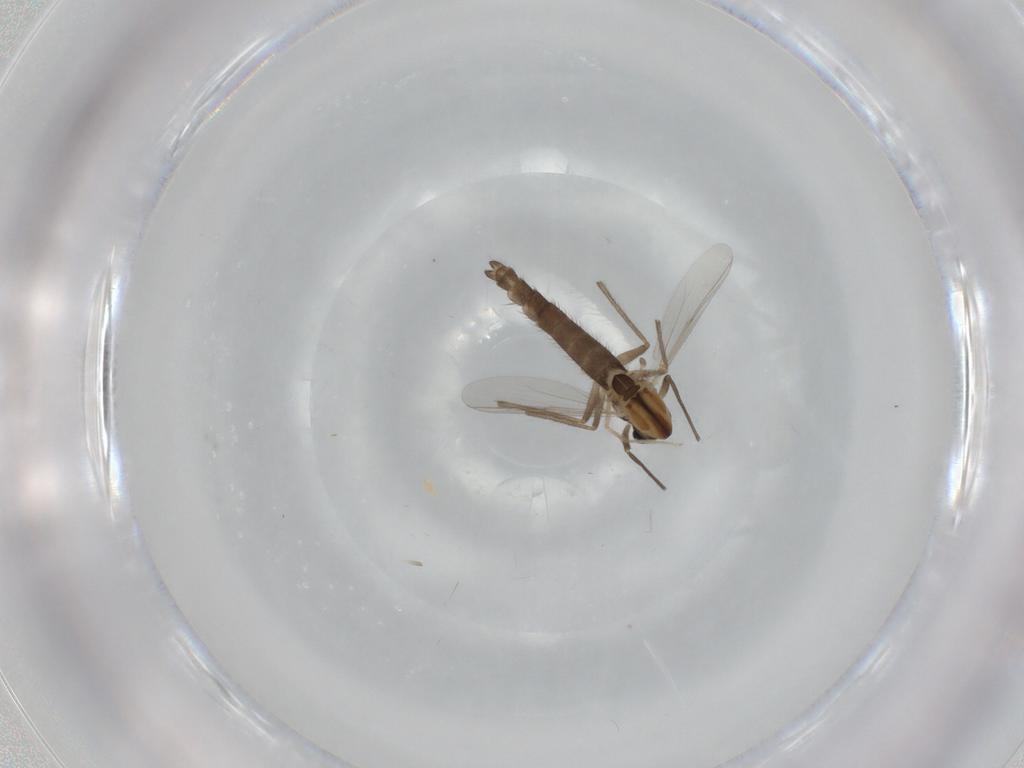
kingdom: Animalia
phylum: Arthropoda
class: Insecta
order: Diptera
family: Chironomidae
